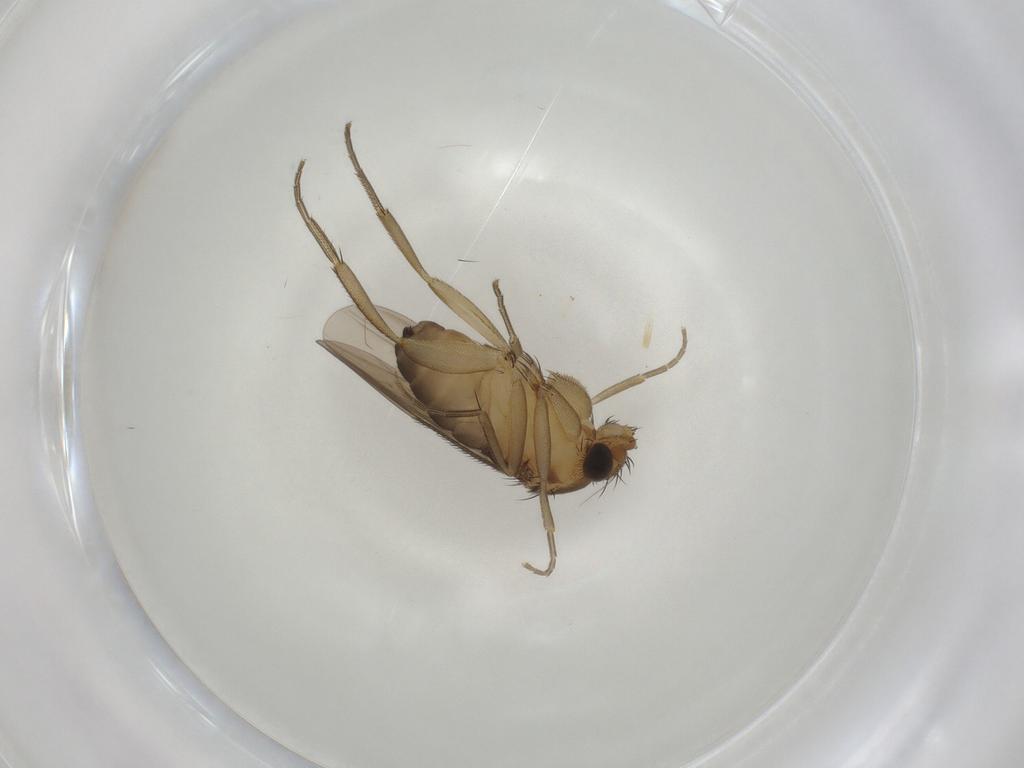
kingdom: Animalia
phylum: Arthropoda
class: Insecta
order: Diptera
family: Phoridae
